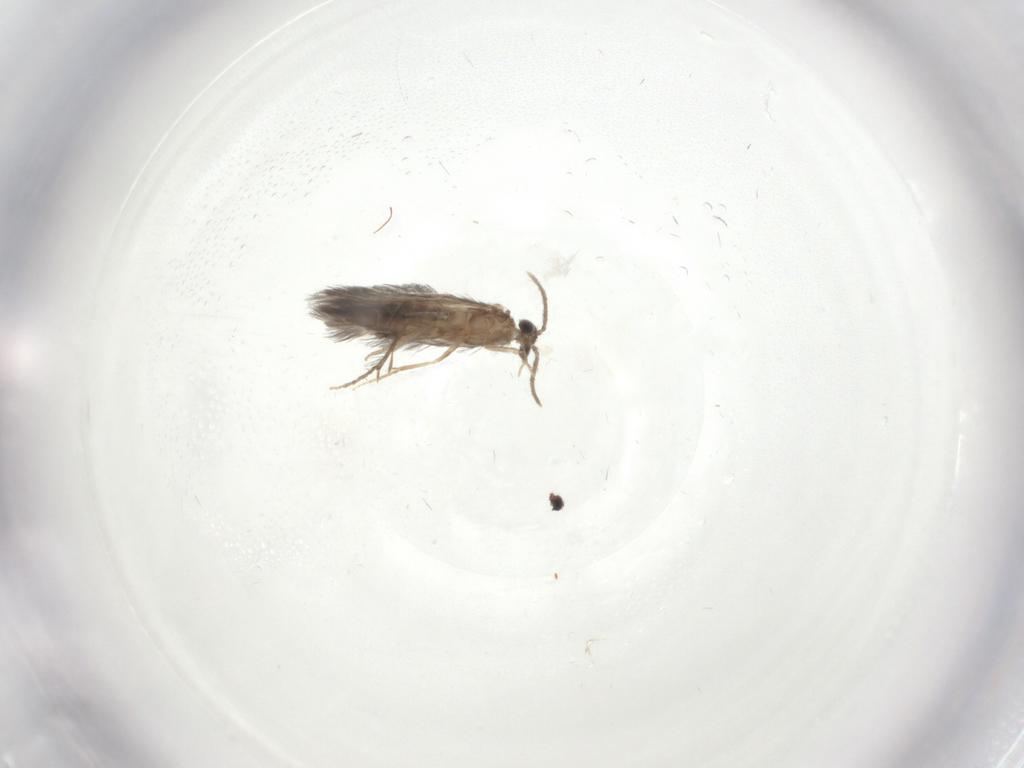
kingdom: Animalia
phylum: Arthropoda
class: Insecta
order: Trichoptera
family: Hydroptilidae
